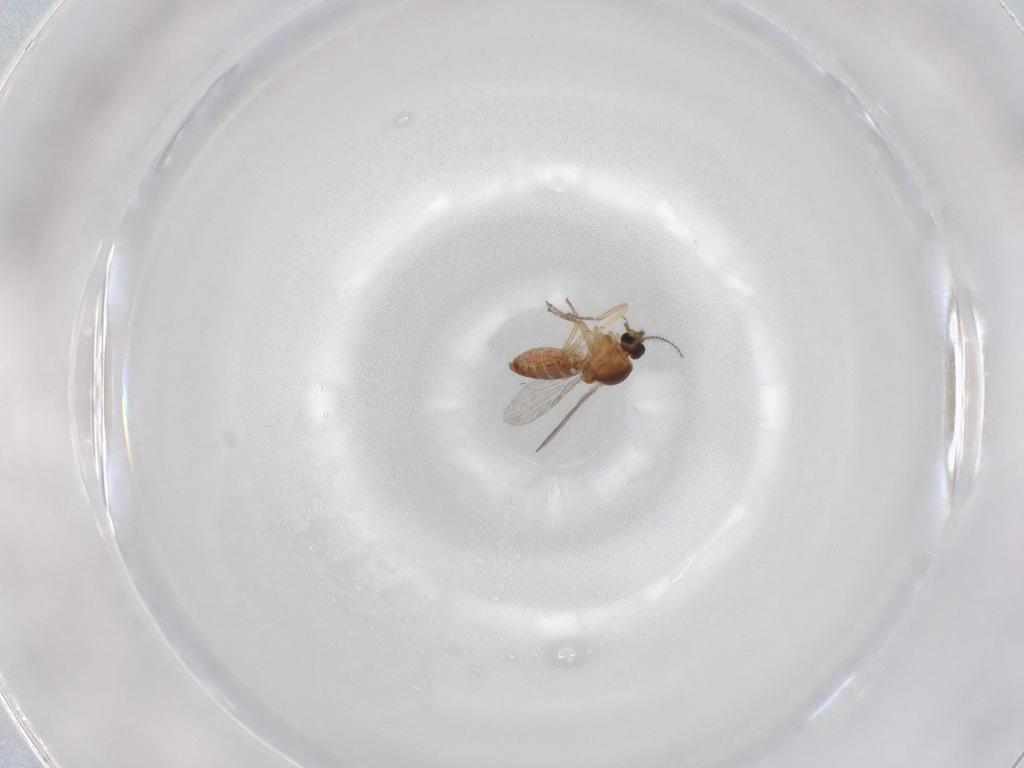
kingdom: Animalia
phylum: Arthropoda
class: Insecta
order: Diptera
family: Ceratopogonidae
